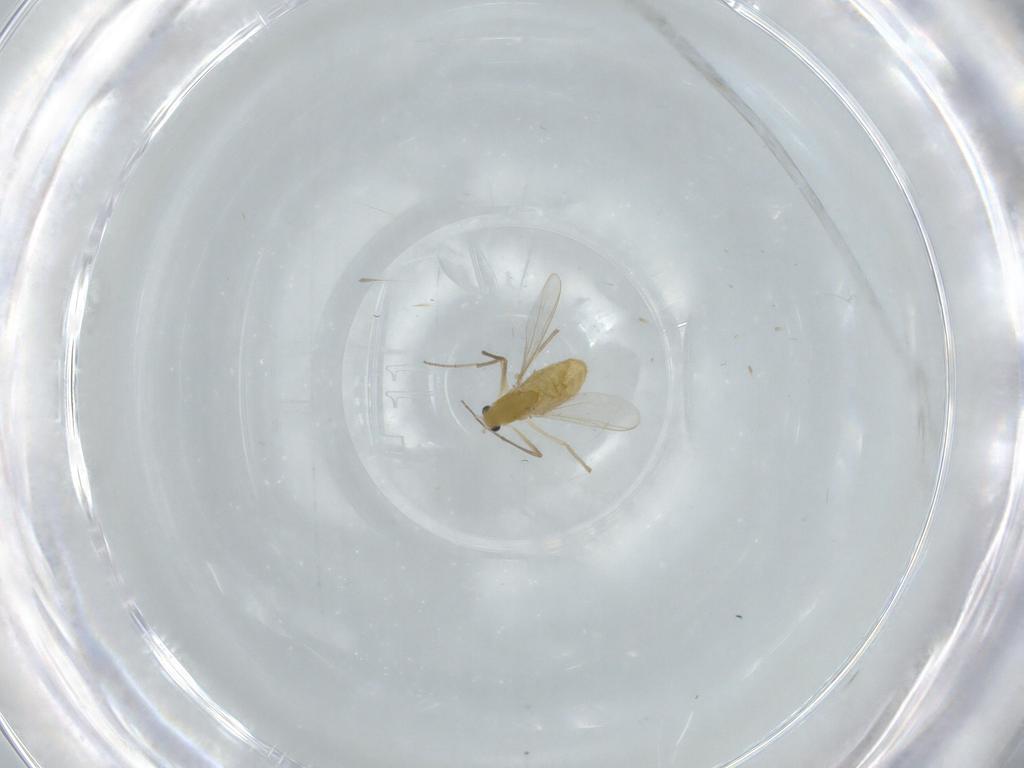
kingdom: Animalia
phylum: Arthropoda
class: Insecta
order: Diptera
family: Chironomidae
